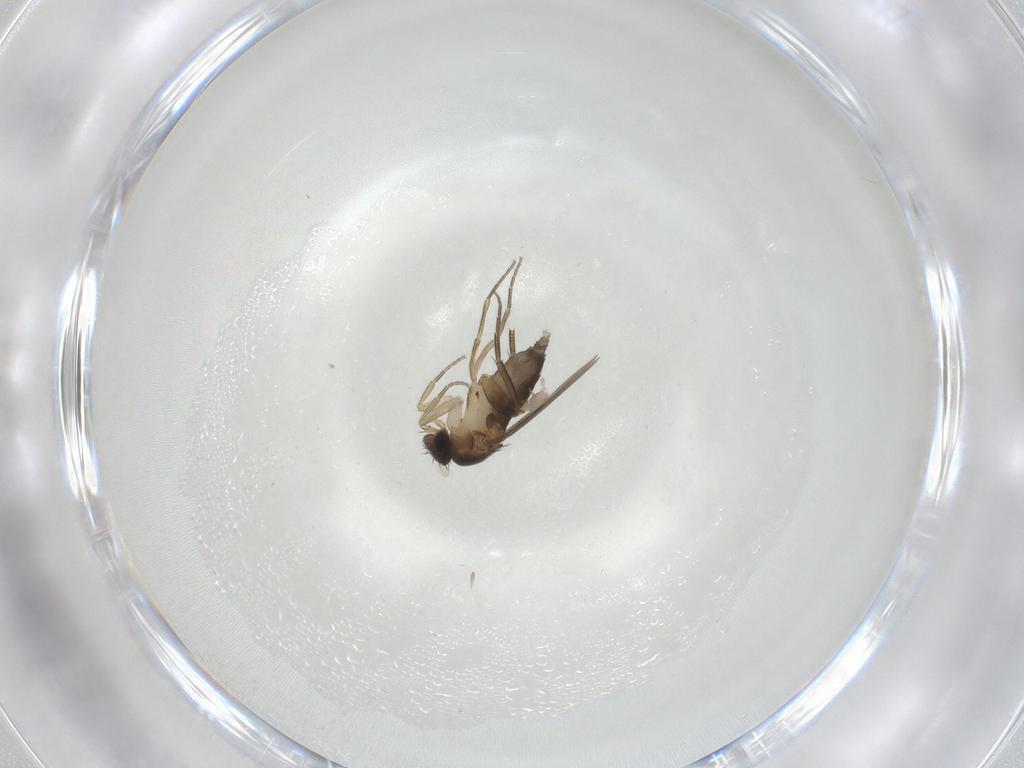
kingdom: Animalia
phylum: Arthropoda
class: Insecta
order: Diptera
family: Phoridae
